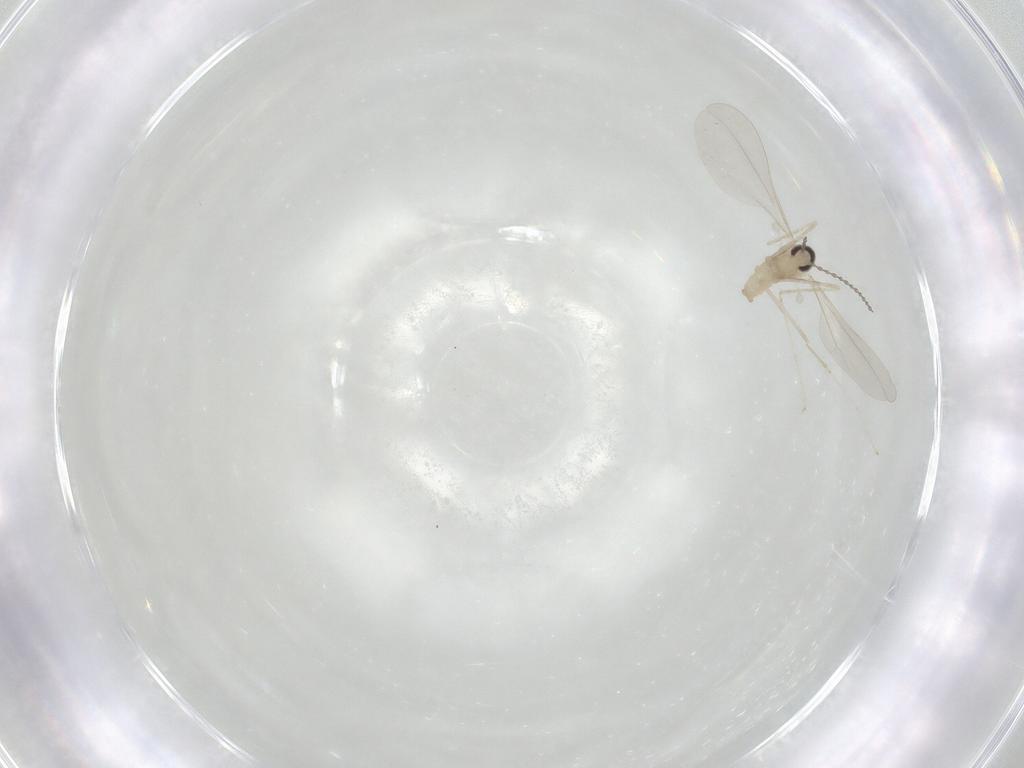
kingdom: Animalia
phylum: Arthropoda
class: Insecta
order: Diptera
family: Cecidomyiidae
